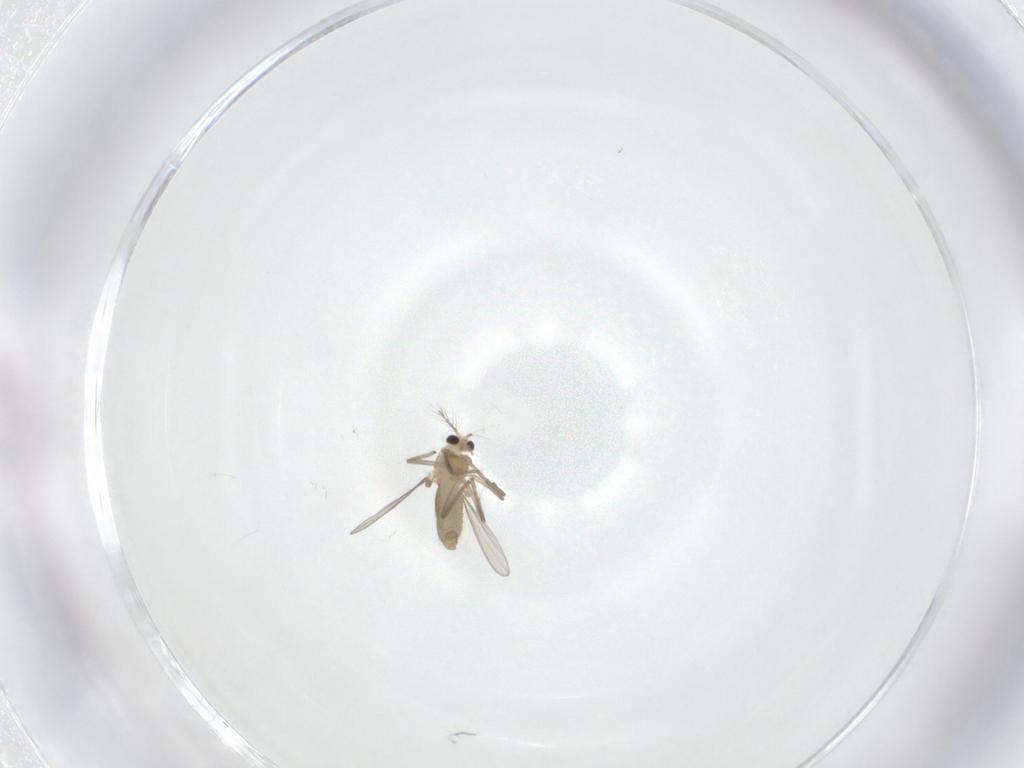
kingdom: Animalia
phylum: Arthropoda
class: Insecta
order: Diptera
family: Chironomidae
